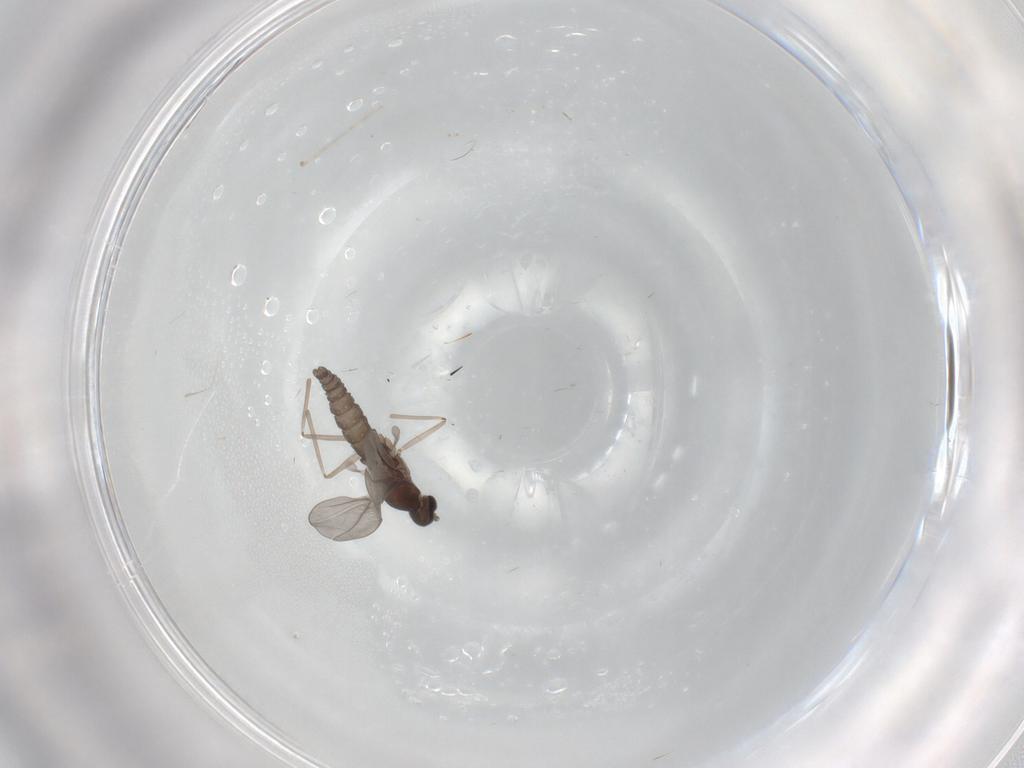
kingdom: Animalia
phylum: Arthropoda
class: Insecta
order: Diptera
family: Cecidomyiidae
